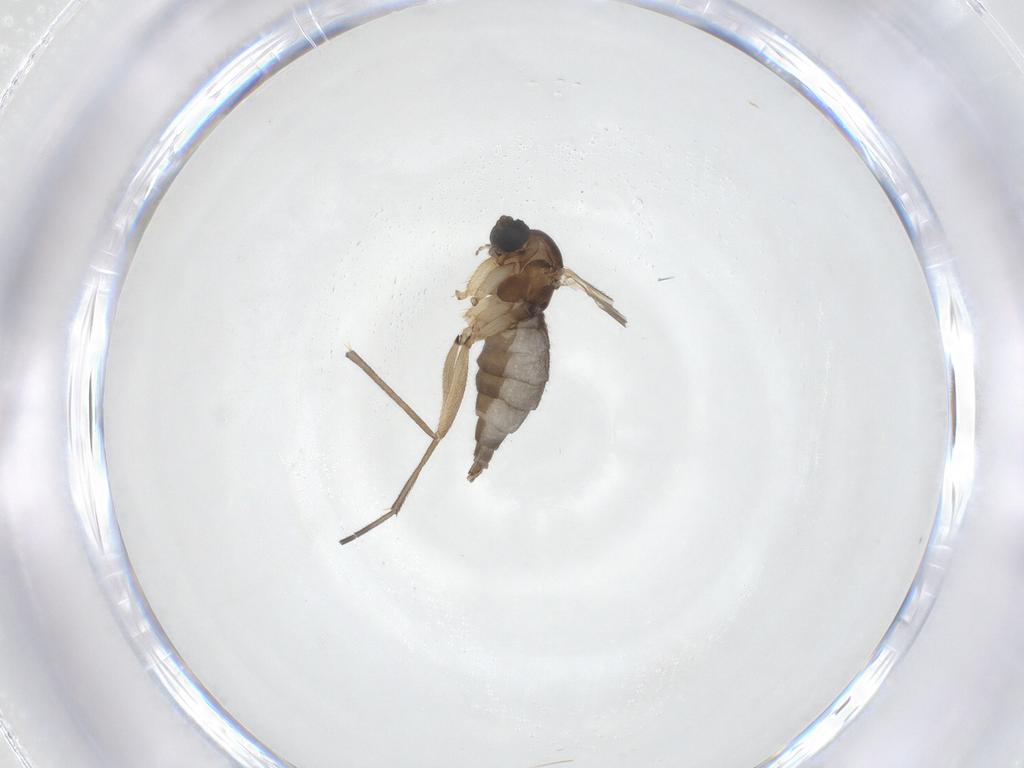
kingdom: Animalia
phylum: Arthropoda
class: Insecta
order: Diptera
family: Sciaridae
